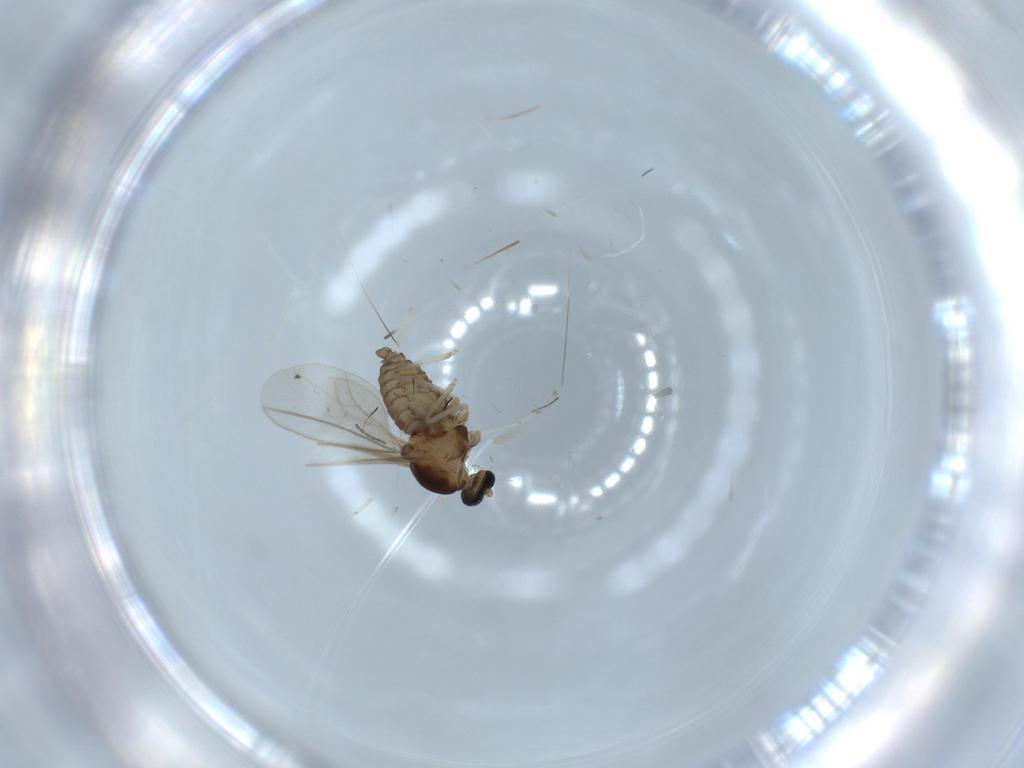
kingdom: Animalia
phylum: Arthropoda
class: Insecta
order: Diptera
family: Cecidomyiidae
